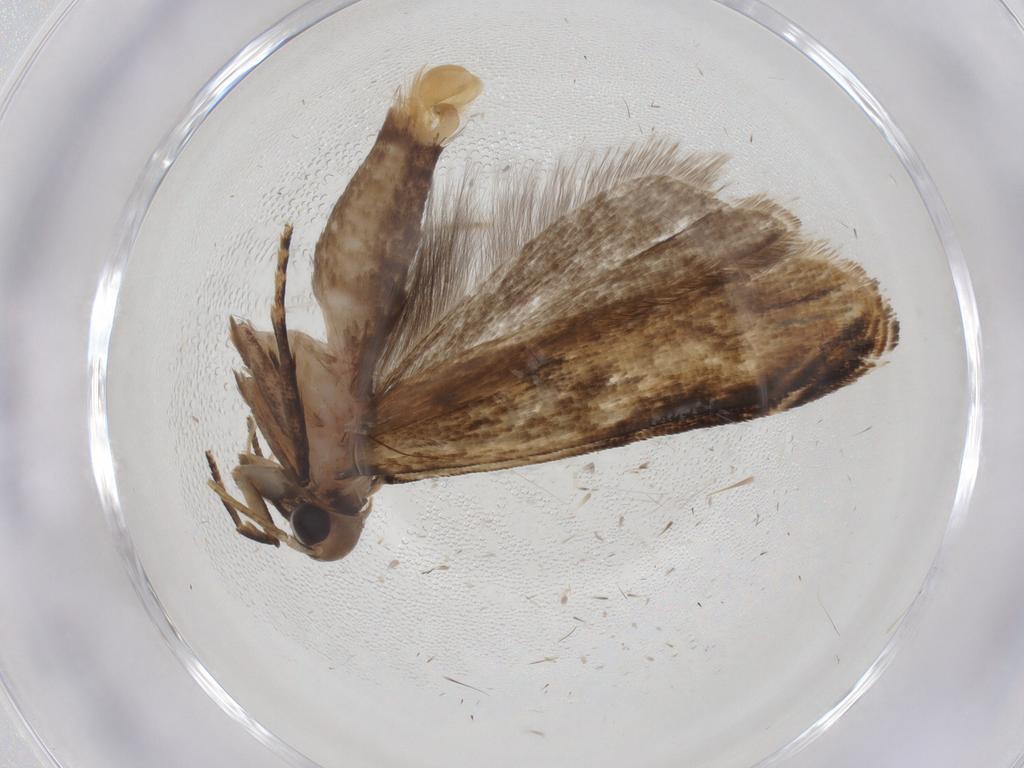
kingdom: Animalia
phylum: Arthropoda
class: Insecta
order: Lepidoptera
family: Gelechiidae
